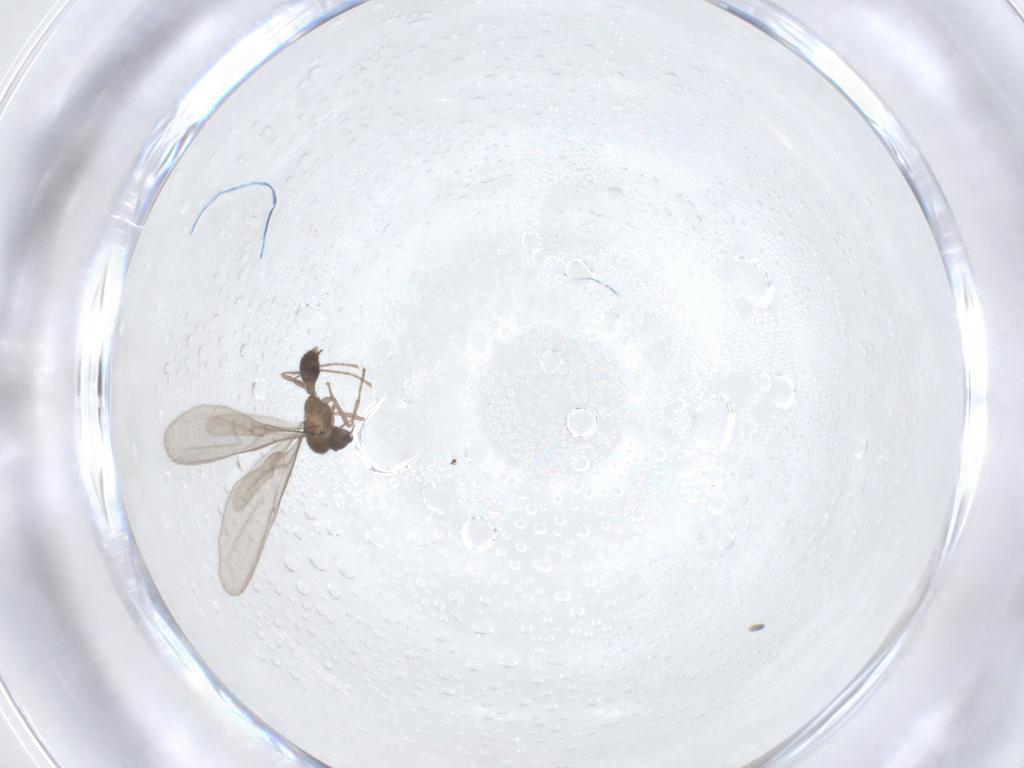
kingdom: Animalia
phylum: Arthropoda
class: Insecta
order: Hymenoptera
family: Formicidae
